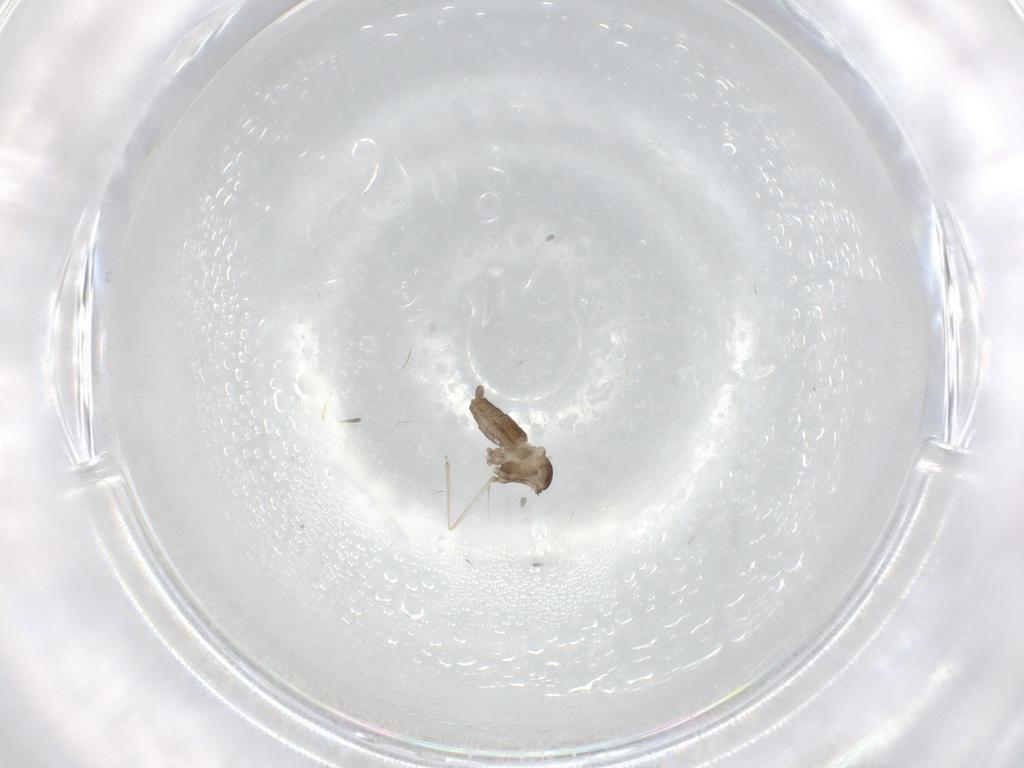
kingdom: Animalia
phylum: Arthropoda
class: Insecta
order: Diptera
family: Cecidomyiidae
